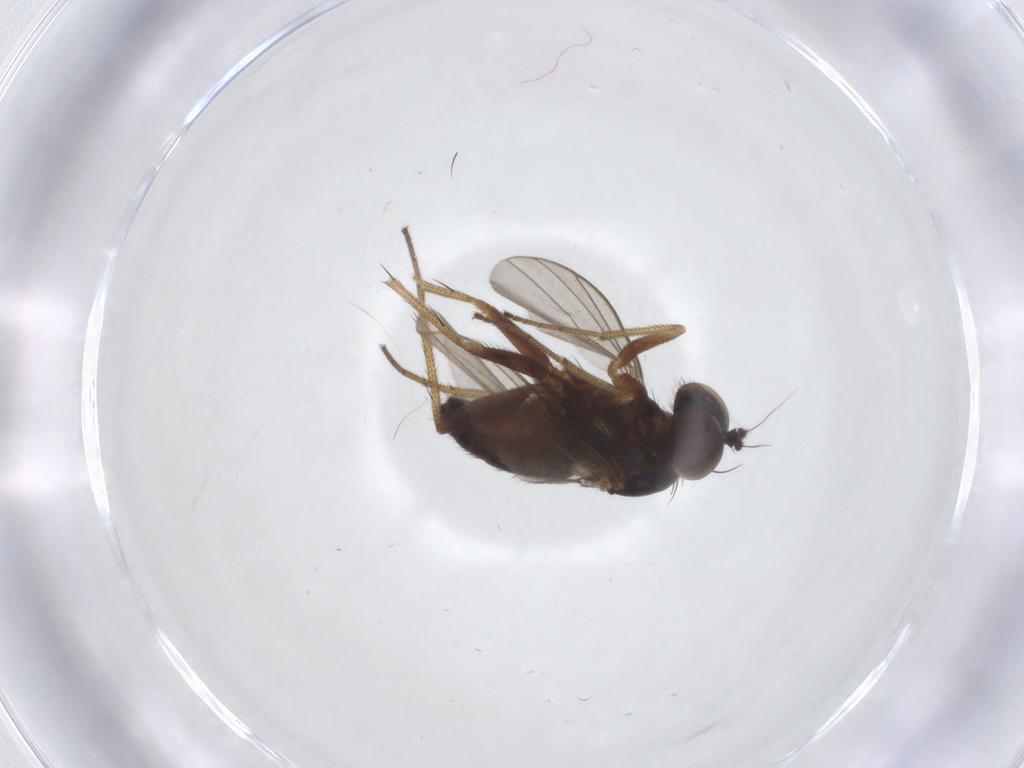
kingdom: Animalia
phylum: Arthropoda
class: Insecta
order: Diptera
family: Dolichopodidae
